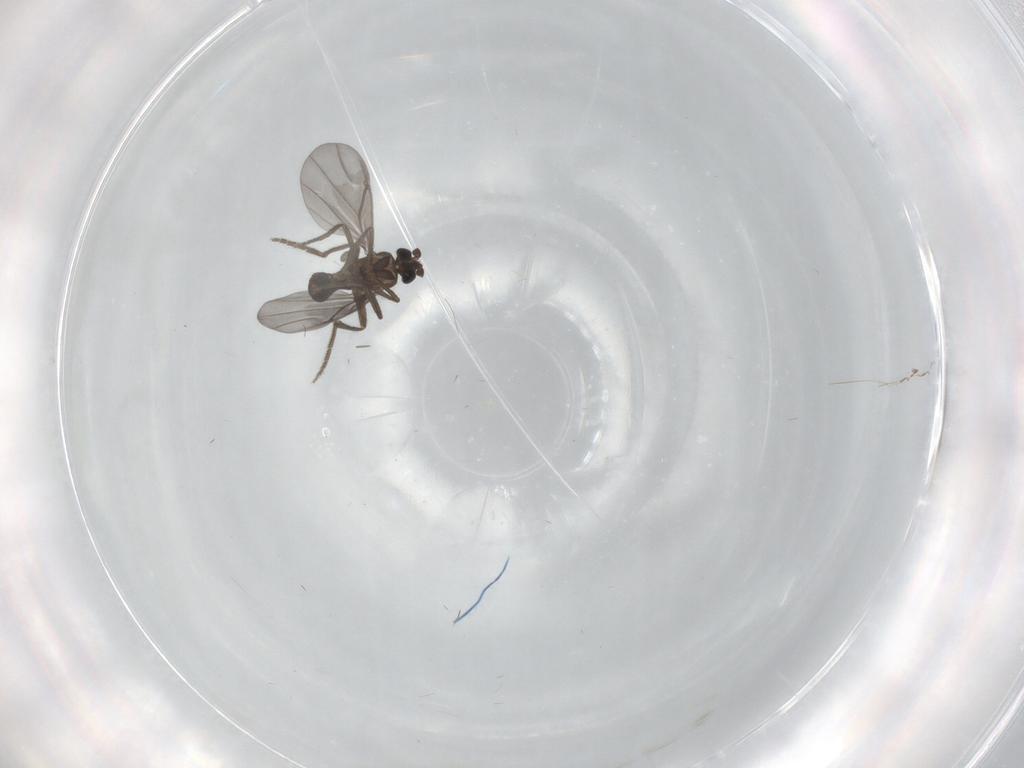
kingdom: Animalia
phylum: Arthropoda
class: Insecta
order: Diptera
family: Phoridae
